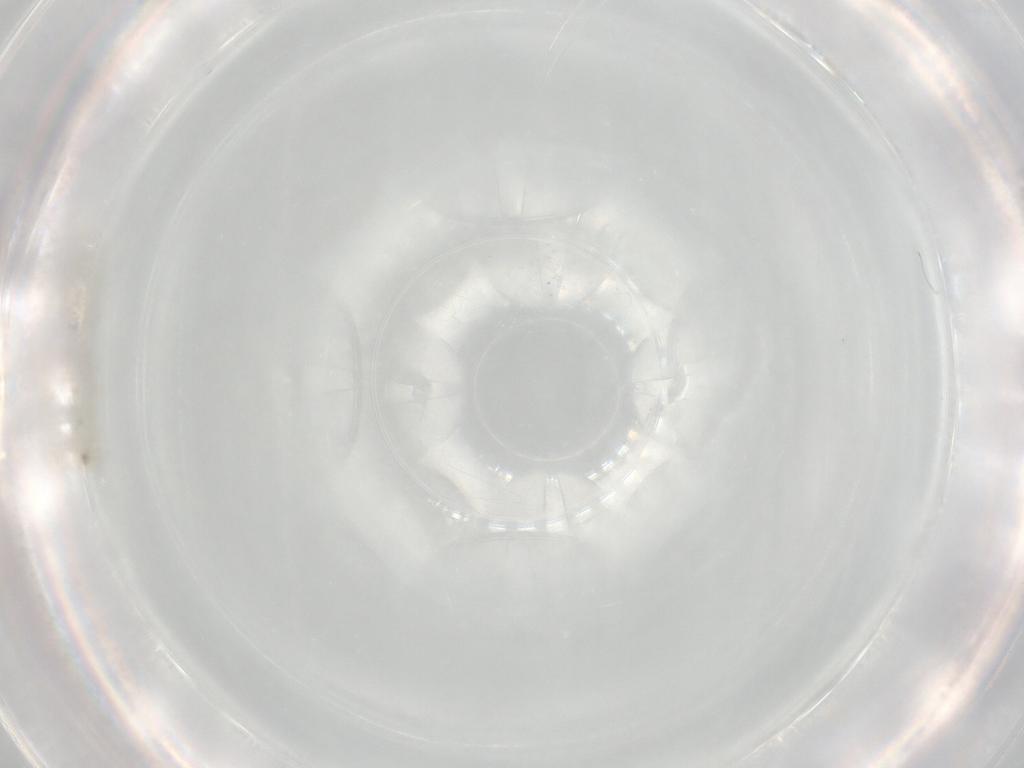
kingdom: Animalia
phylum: Arthropoda
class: Insecta
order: Diptera
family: Chironomidae
